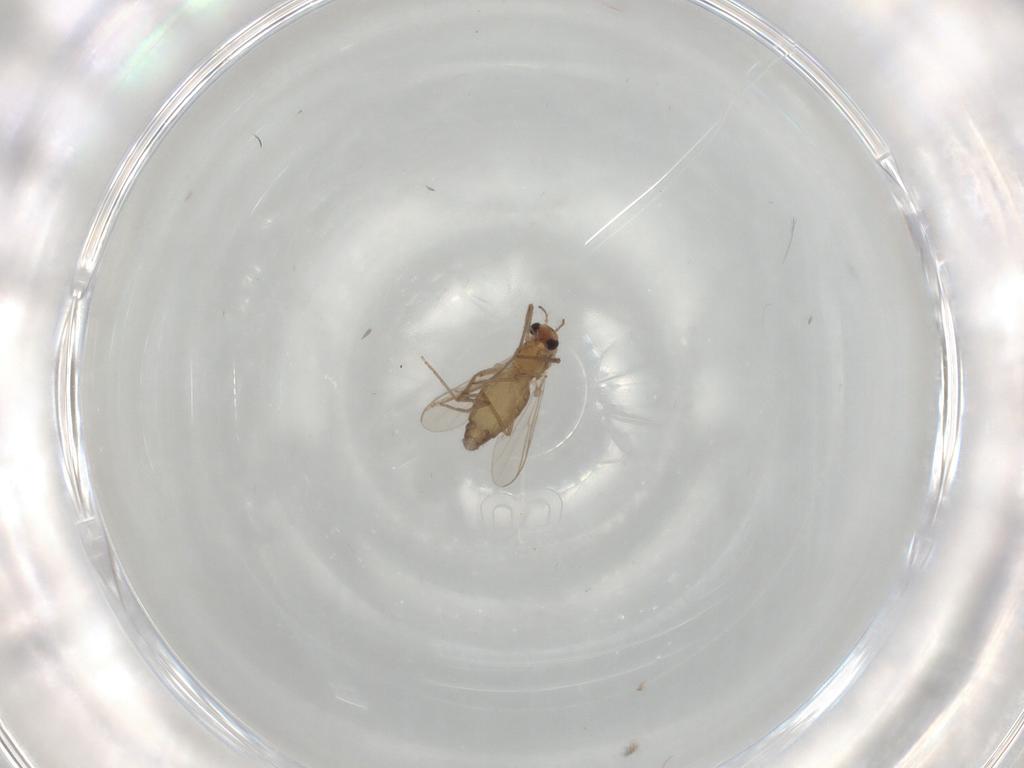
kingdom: Animalia
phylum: Arthropoda
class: Insecta
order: Diptera
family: Chironomidae
